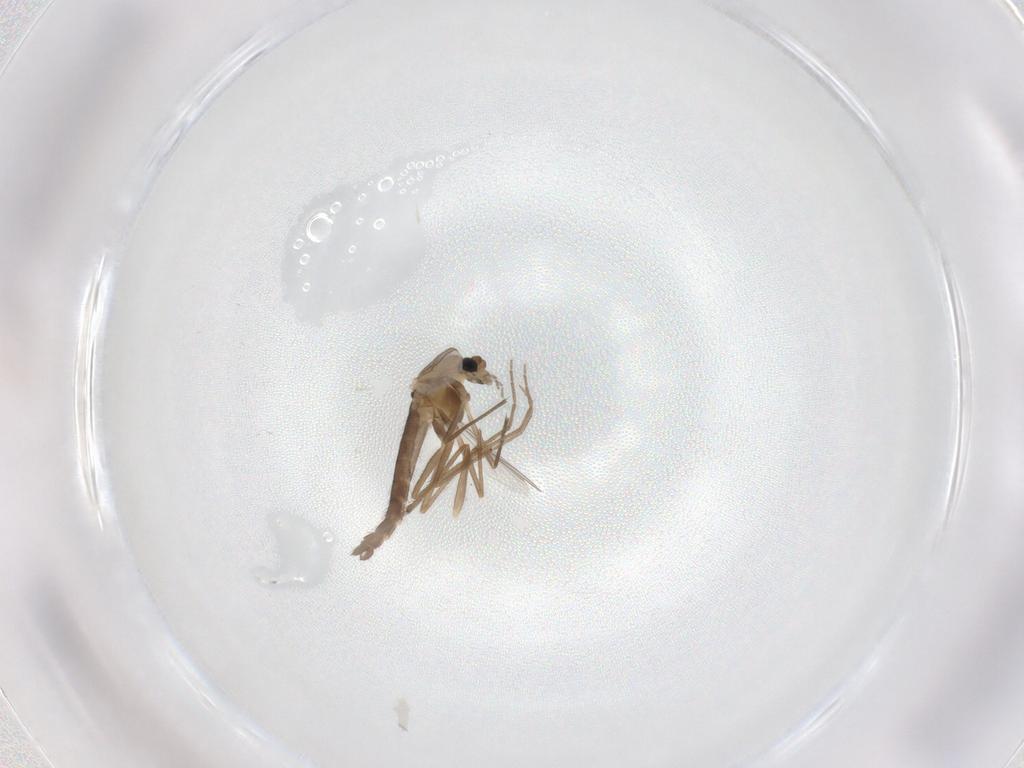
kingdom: Animalia
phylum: Arthropoda
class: Insecta
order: Diptera
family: Chironomidae
